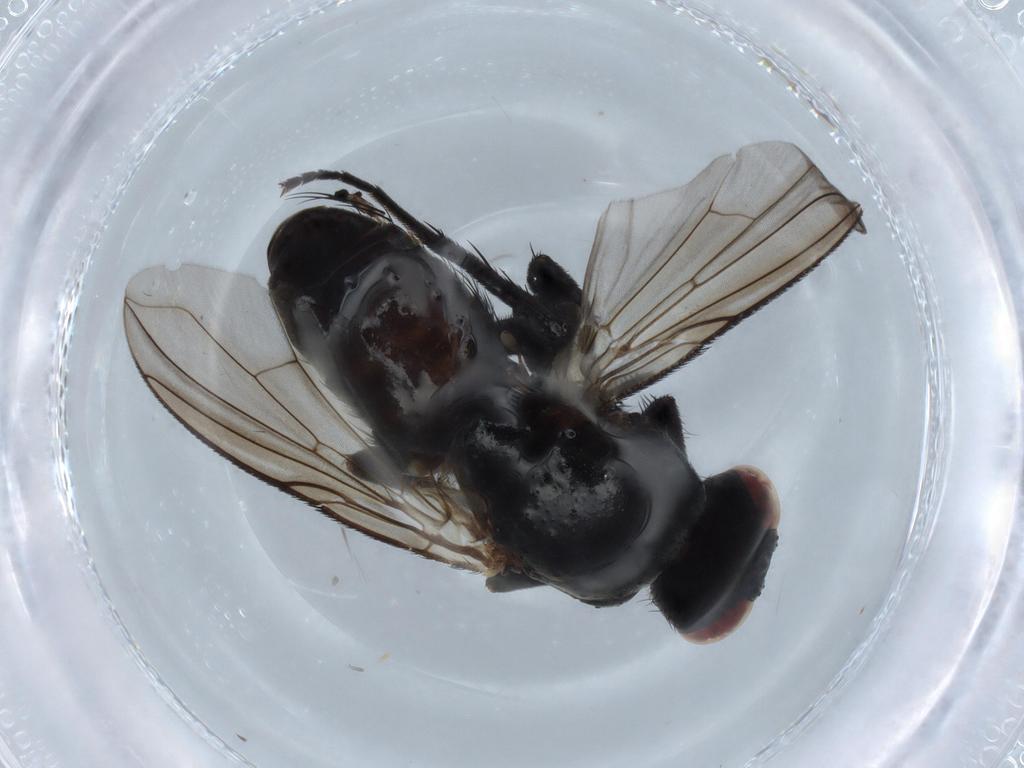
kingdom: Animalia
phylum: Arthropoda
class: Insecta
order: Diptera
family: Calliphoridae
